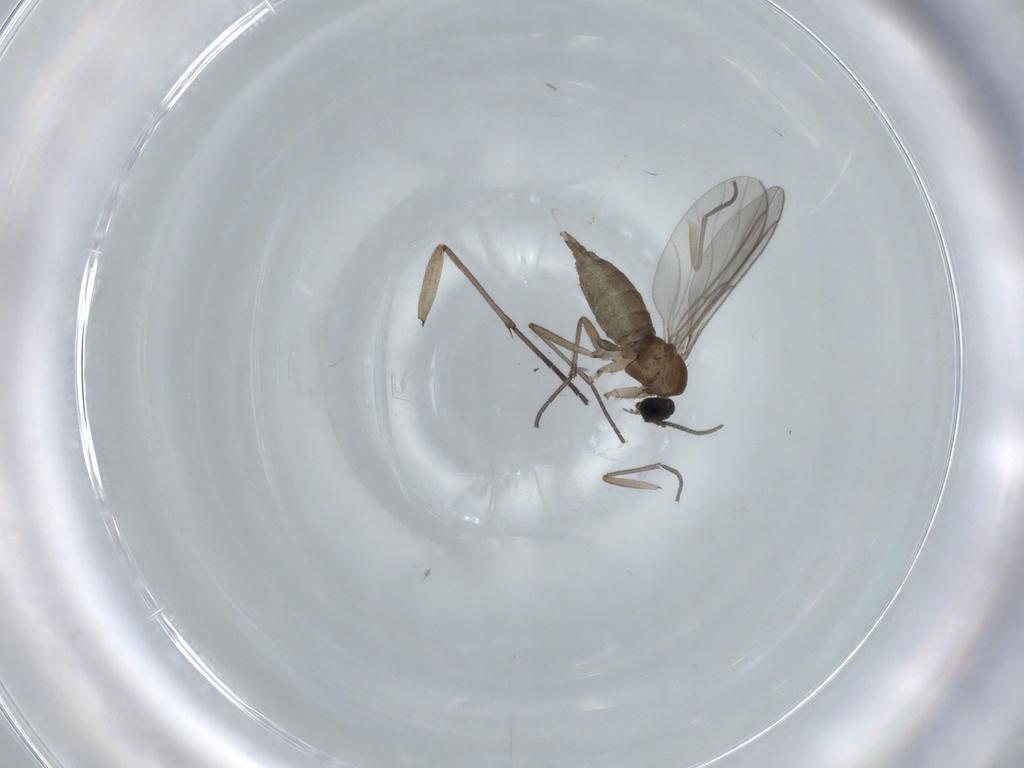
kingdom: Animalia
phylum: Arthropoda
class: Insecta
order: Diptera
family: Sciaridae
